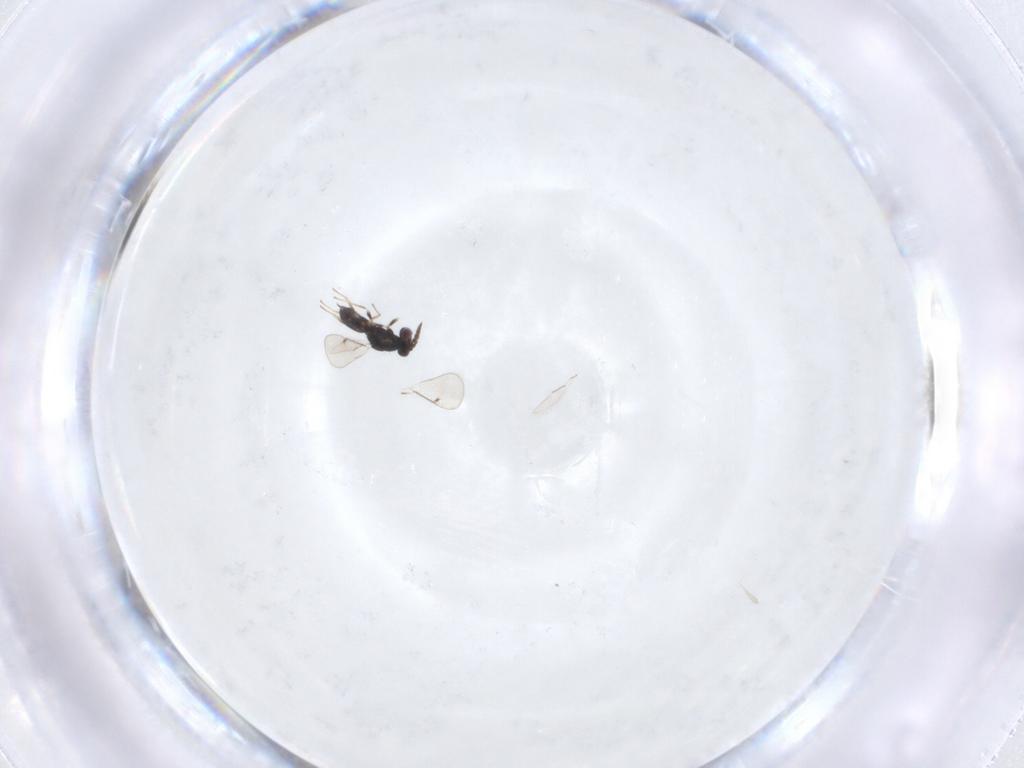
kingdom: Animalia
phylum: Arthropoda
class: Insecta
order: Hymenoptera
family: Eulophidae
